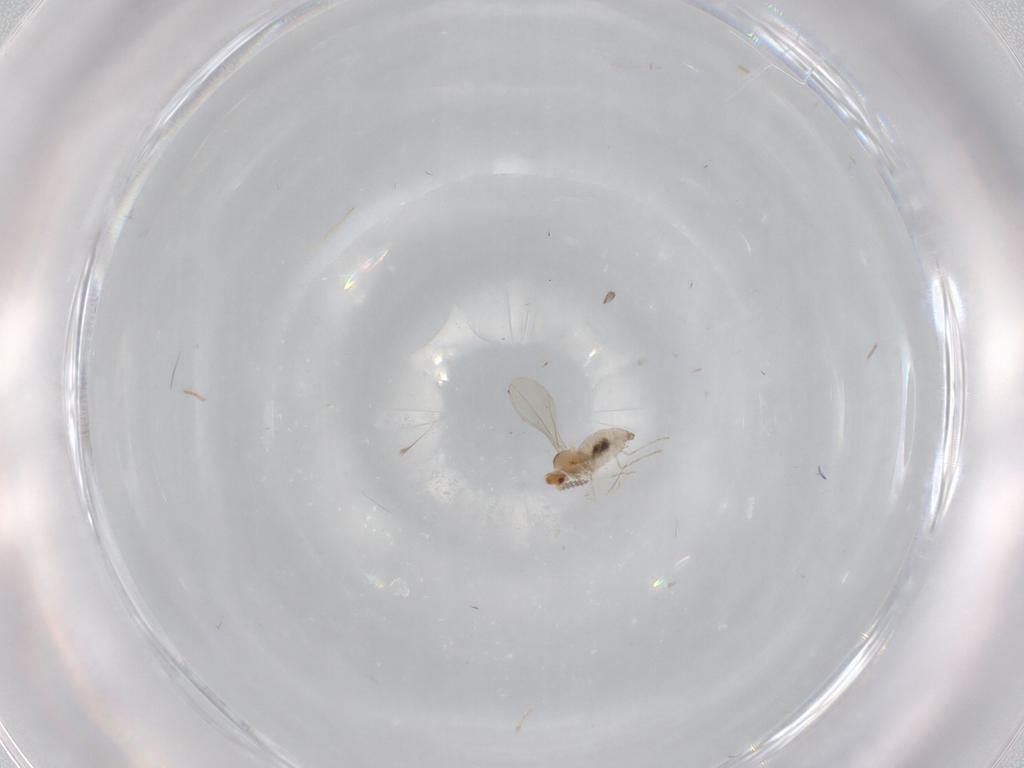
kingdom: Animalia
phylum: Arthropoda
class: Insecta
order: Diptera
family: Cecidomyiidae
